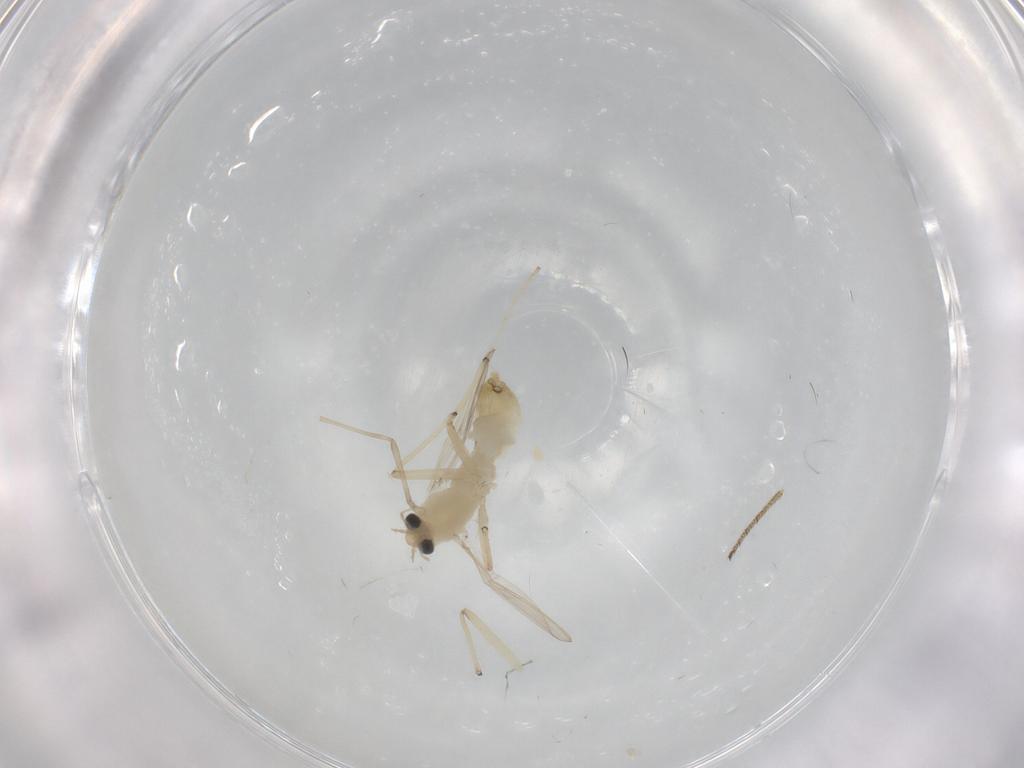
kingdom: Animalia
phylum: Arthropoda
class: Insecta
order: Diptera
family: Chironomidae
